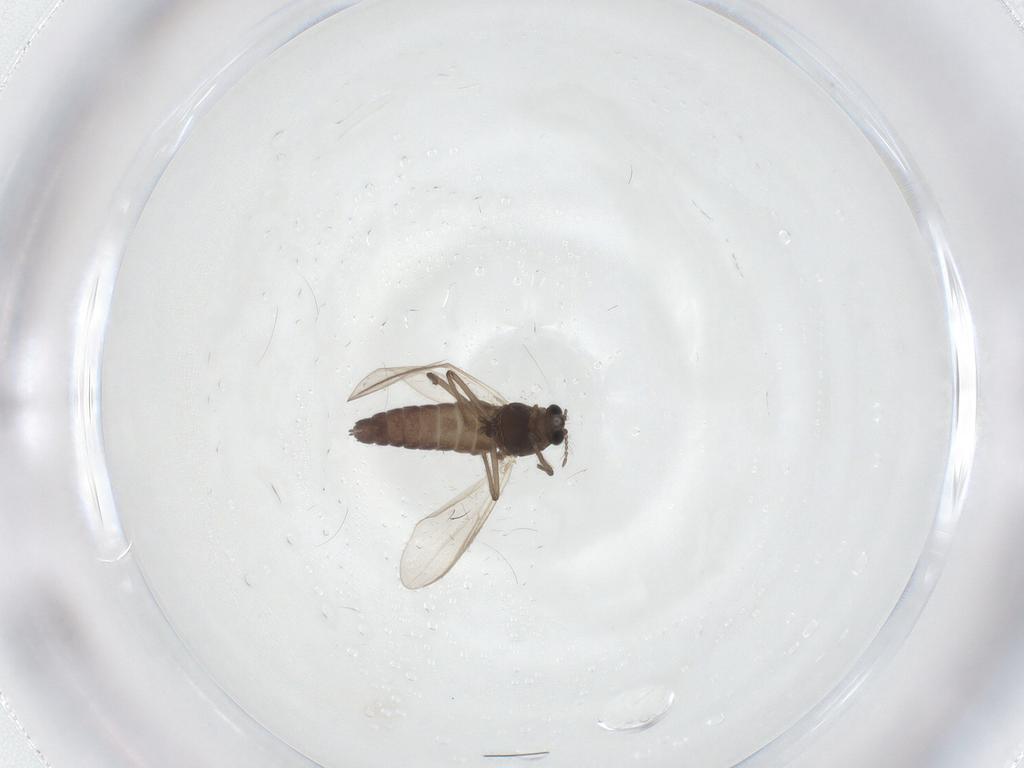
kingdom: Animalia
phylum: Arthropoda
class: Insecta
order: Diptera
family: Chironomidae
